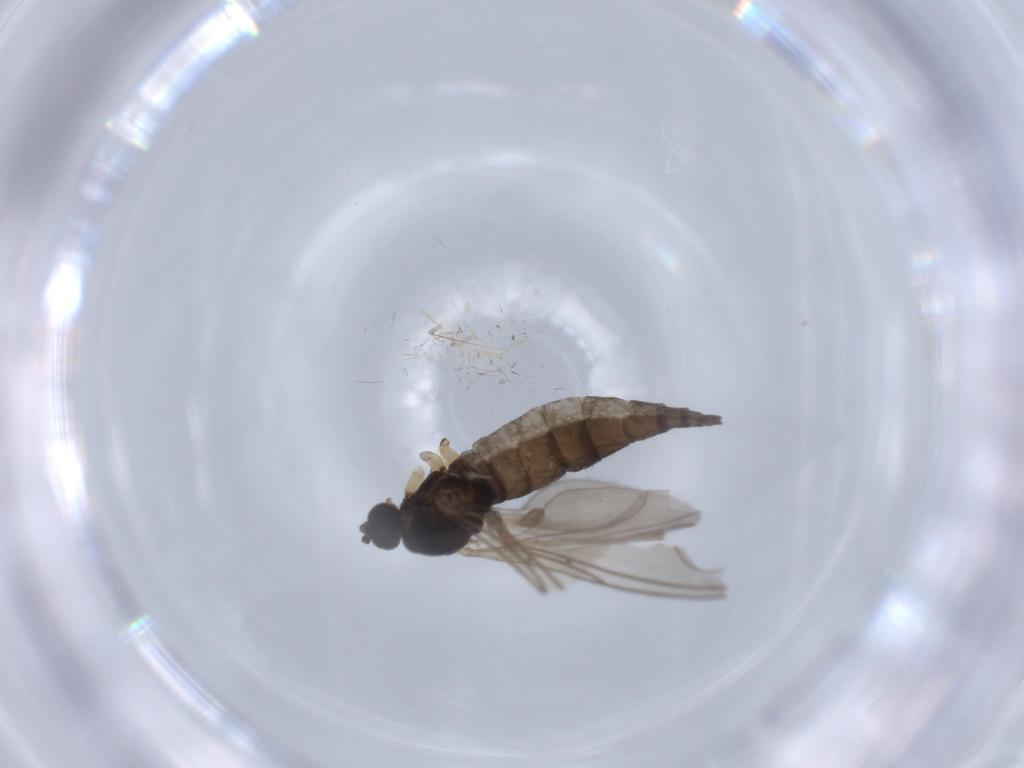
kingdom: Animalia
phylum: Arthropoda
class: Insecta
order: Diptera
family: Sciaridae
